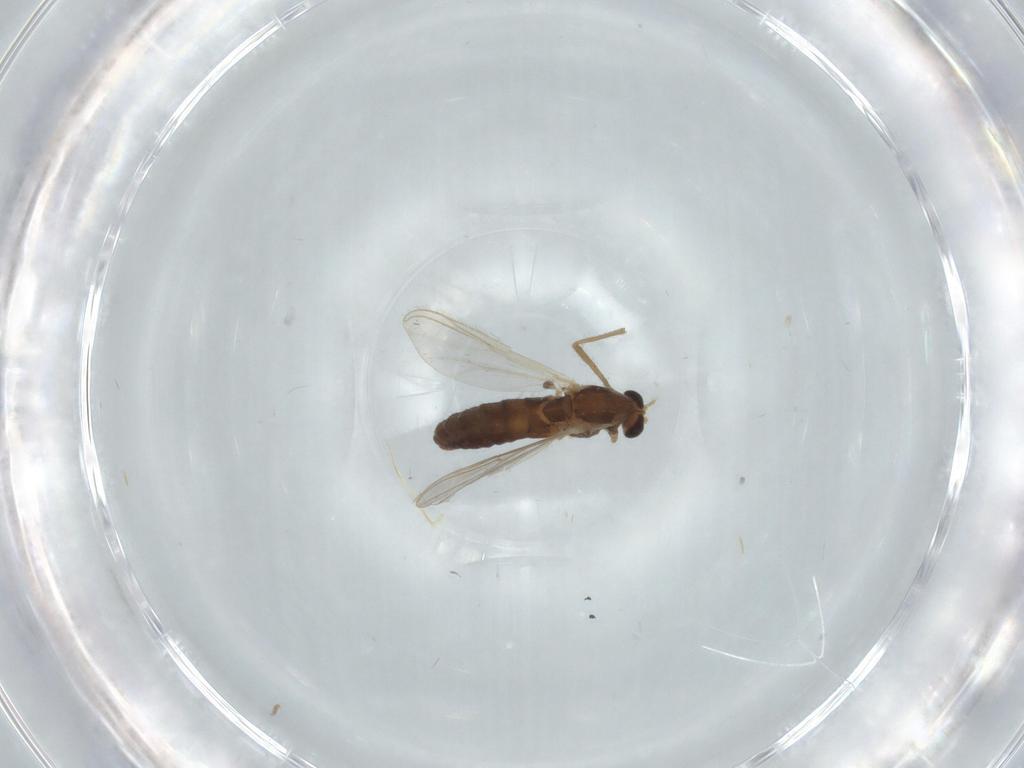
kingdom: Animalia
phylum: Arthropoda
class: Insecta
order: Diptera
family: Chironomidae
